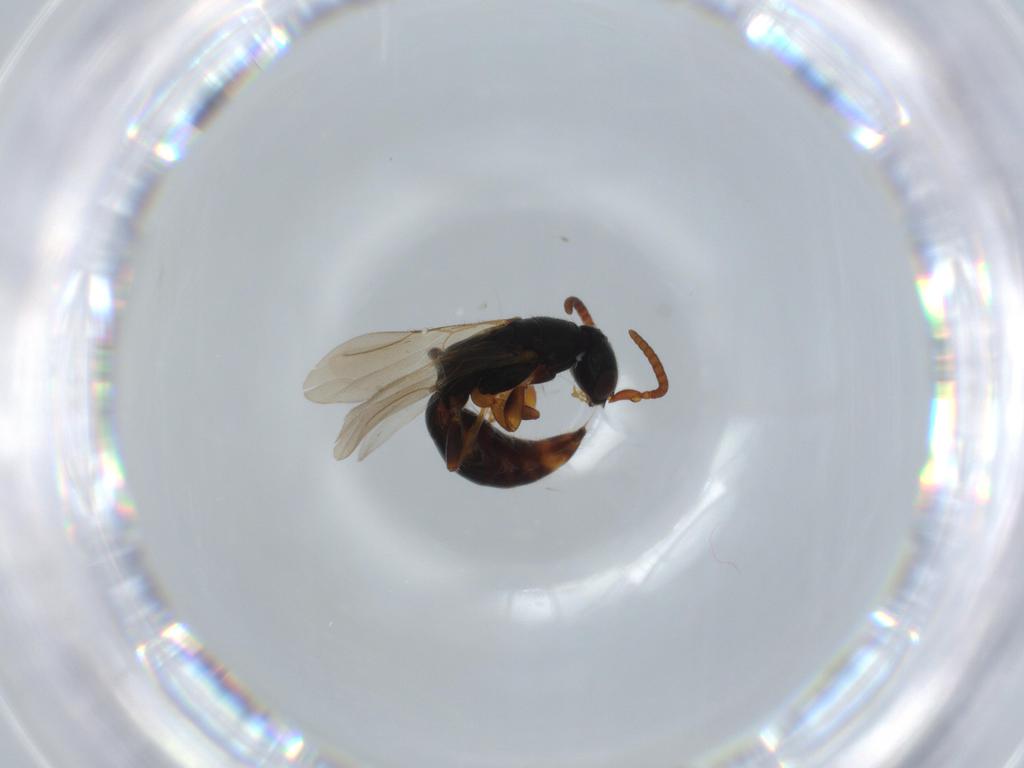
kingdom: Animalia
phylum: Arthropoda
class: Insecta
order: Hymenoptera
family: Bethylidae
